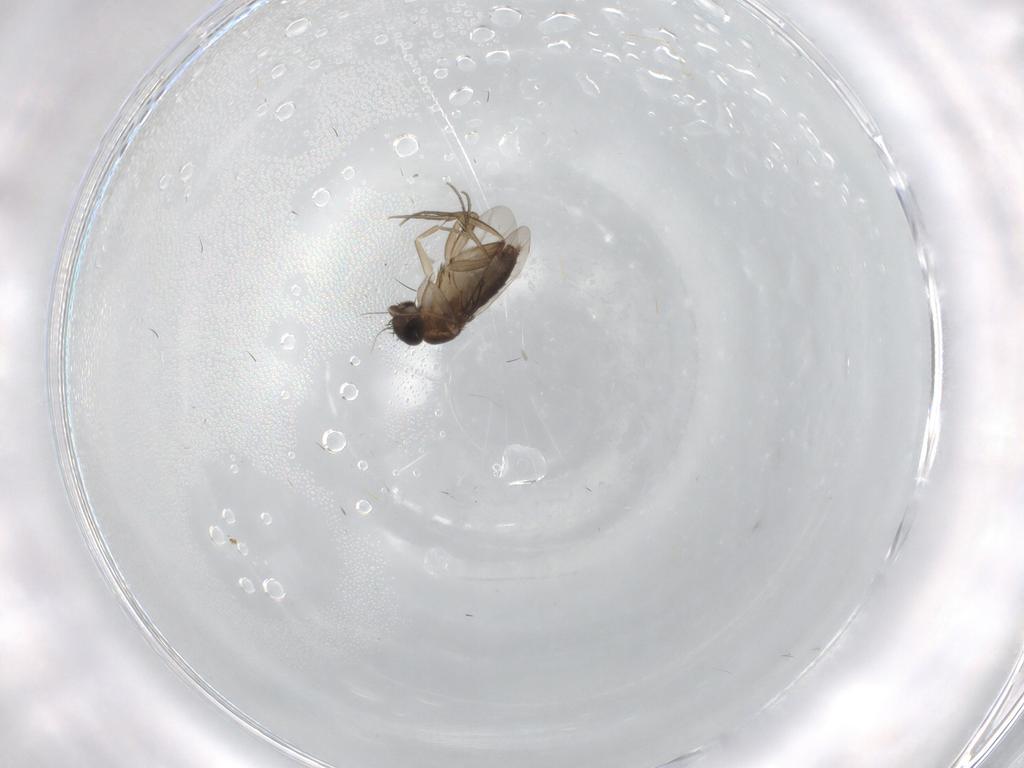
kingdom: Animalia
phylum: Arthropoda
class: Insecta
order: Diptera
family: Phoridae
